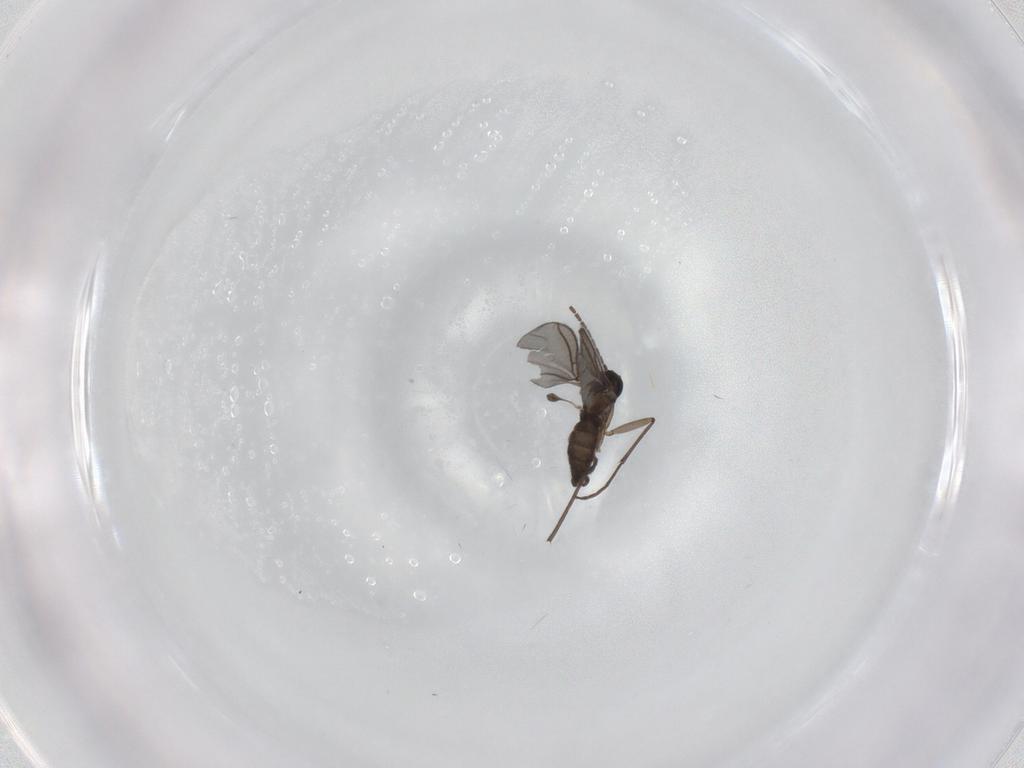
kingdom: Animalia
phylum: Arthropoda
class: Insecta
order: Diptera
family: Sciaridae
